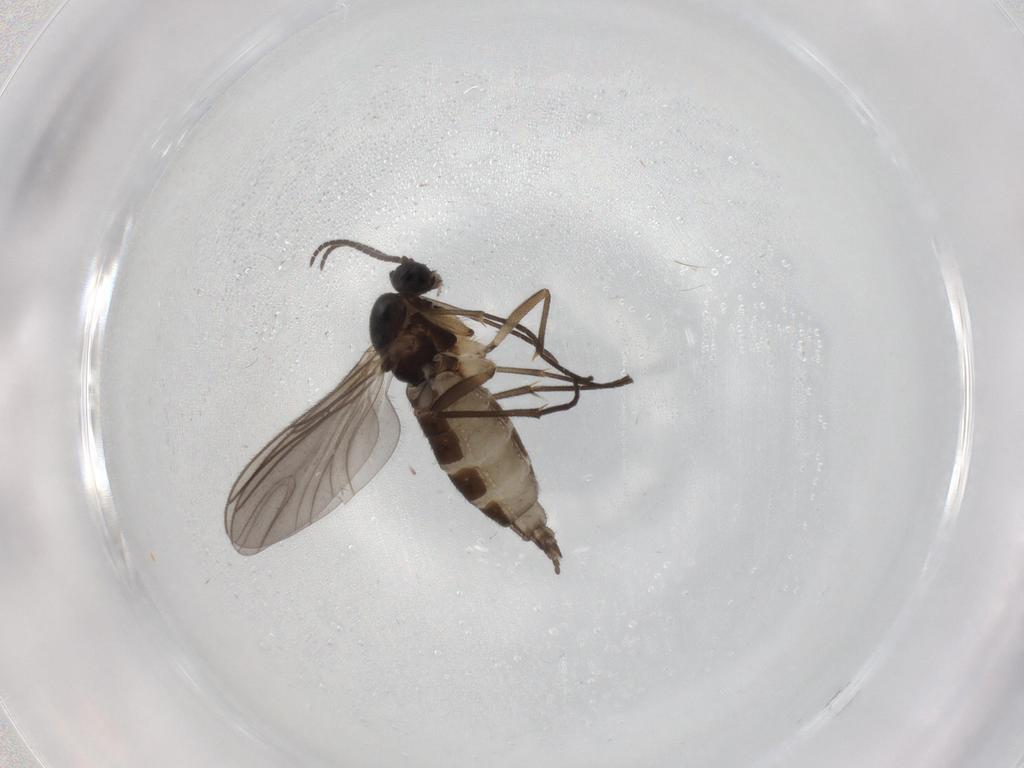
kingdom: Animalia
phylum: Arthropoda
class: Insecta
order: Diptera
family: Sciaridae
